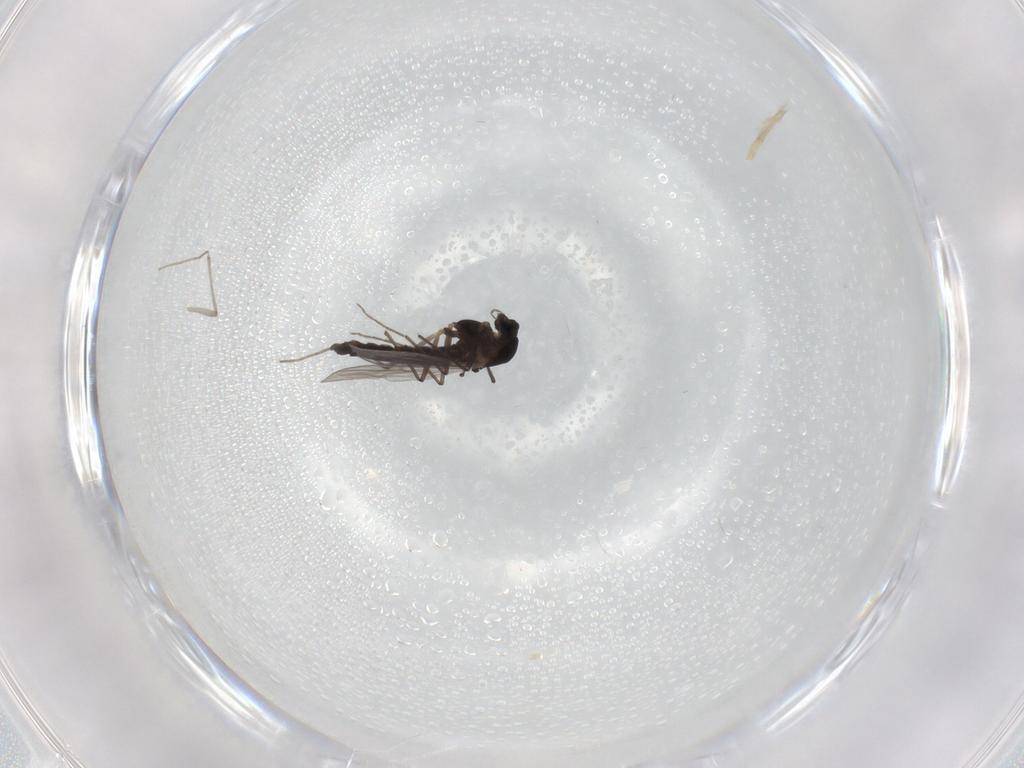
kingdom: Animalia
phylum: Arthropoda
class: Insecta
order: Diptera
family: Chironomidae
